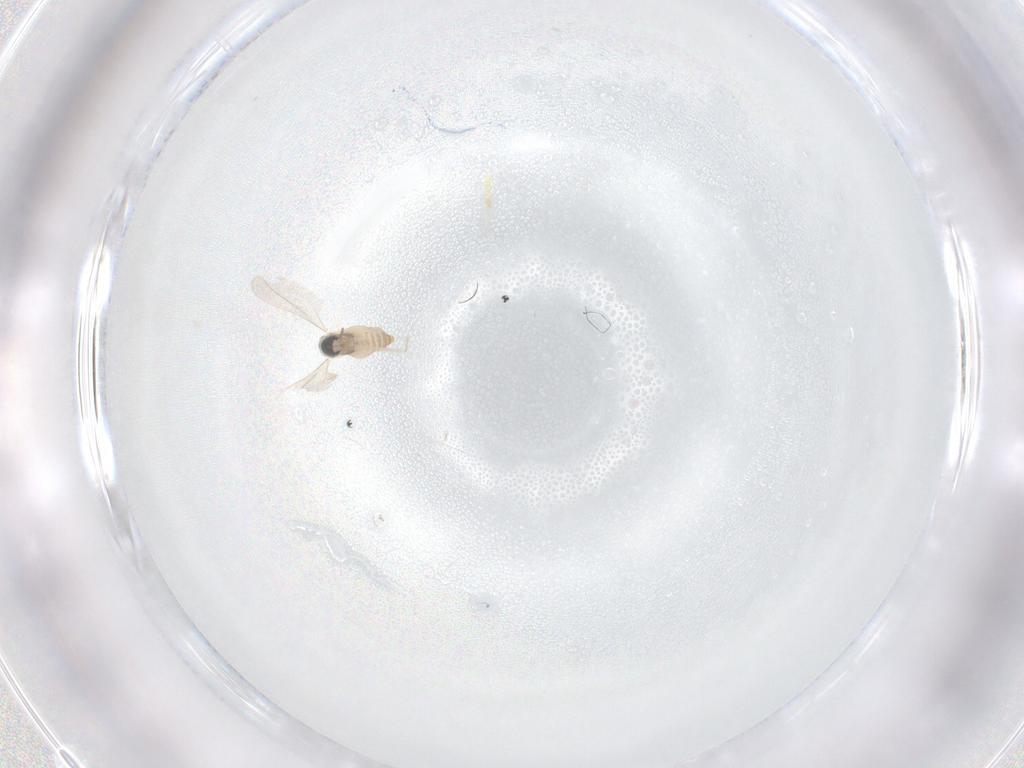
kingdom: Animalia
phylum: Arthropoda
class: Insecta
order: Diptera
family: Cecidomyiidae
